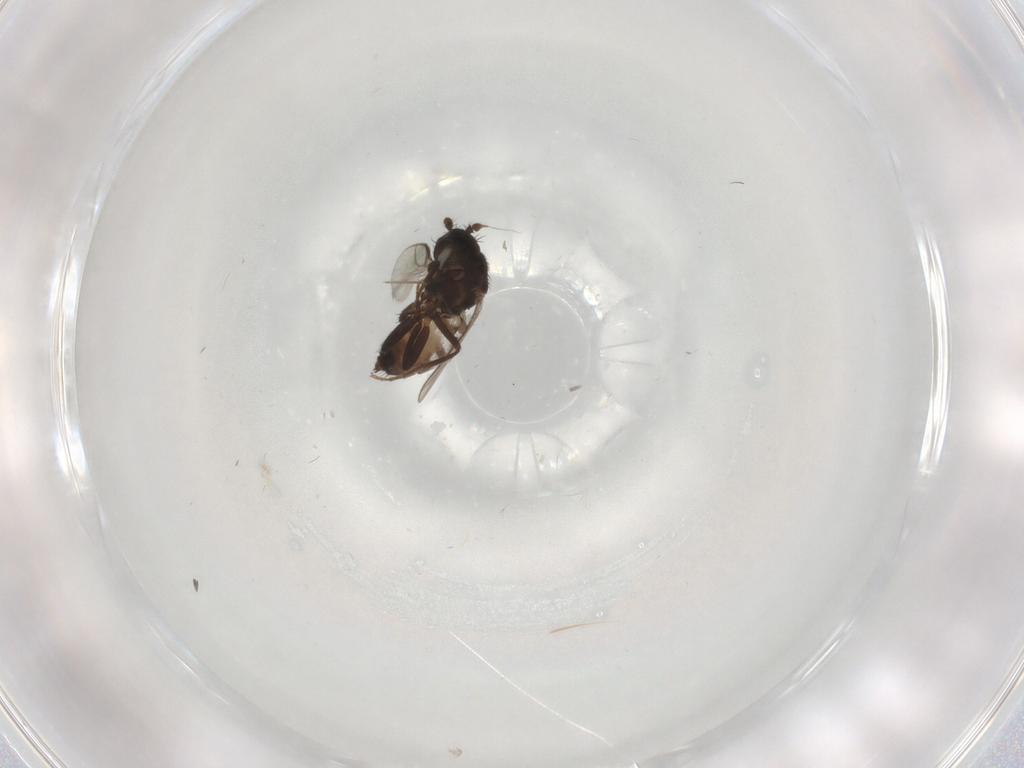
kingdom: Animalia
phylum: Arthropoda
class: Insecta
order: Diptera
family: Sphaeroceridae
